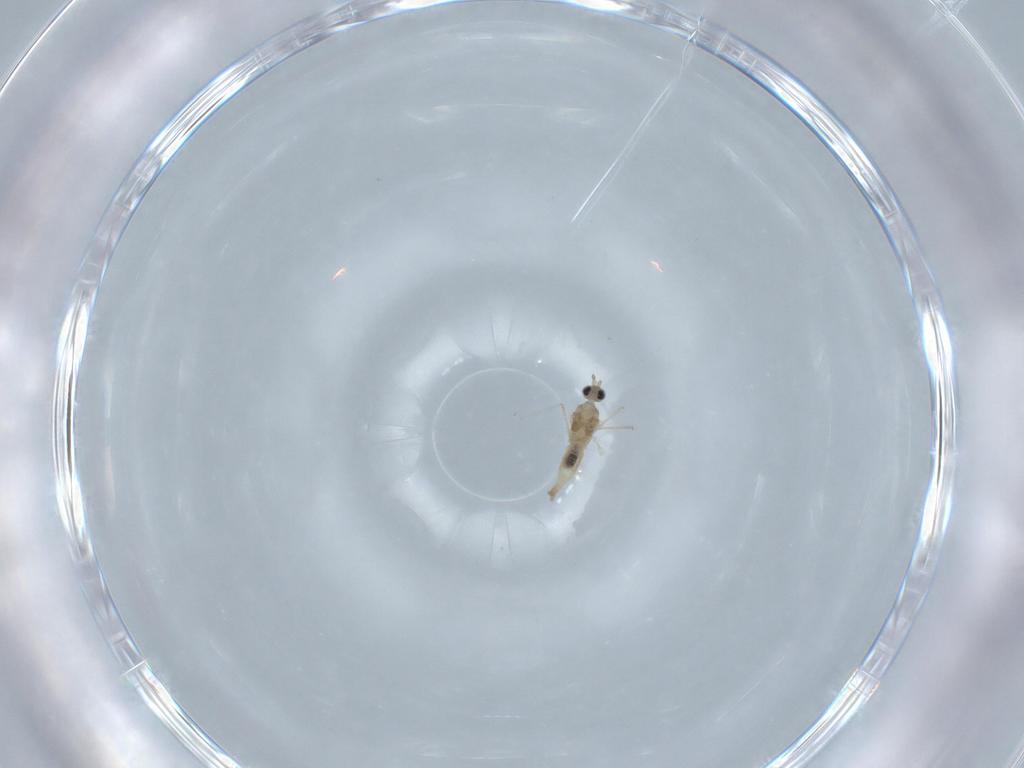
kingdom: Animalia
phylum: Arthropoda
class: Insecta
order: Diptera
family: Cecidomyiidae
